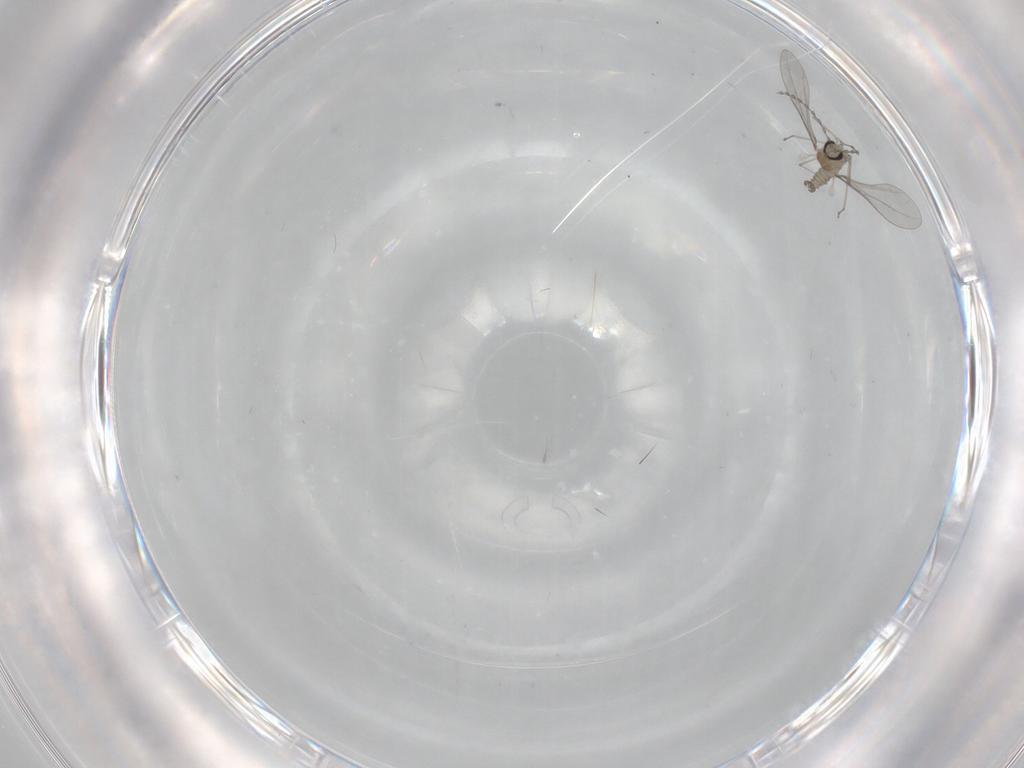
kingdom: Animalia
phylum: Arthropoda
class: Insecta
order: Diptera
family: Cecidomyiidae
